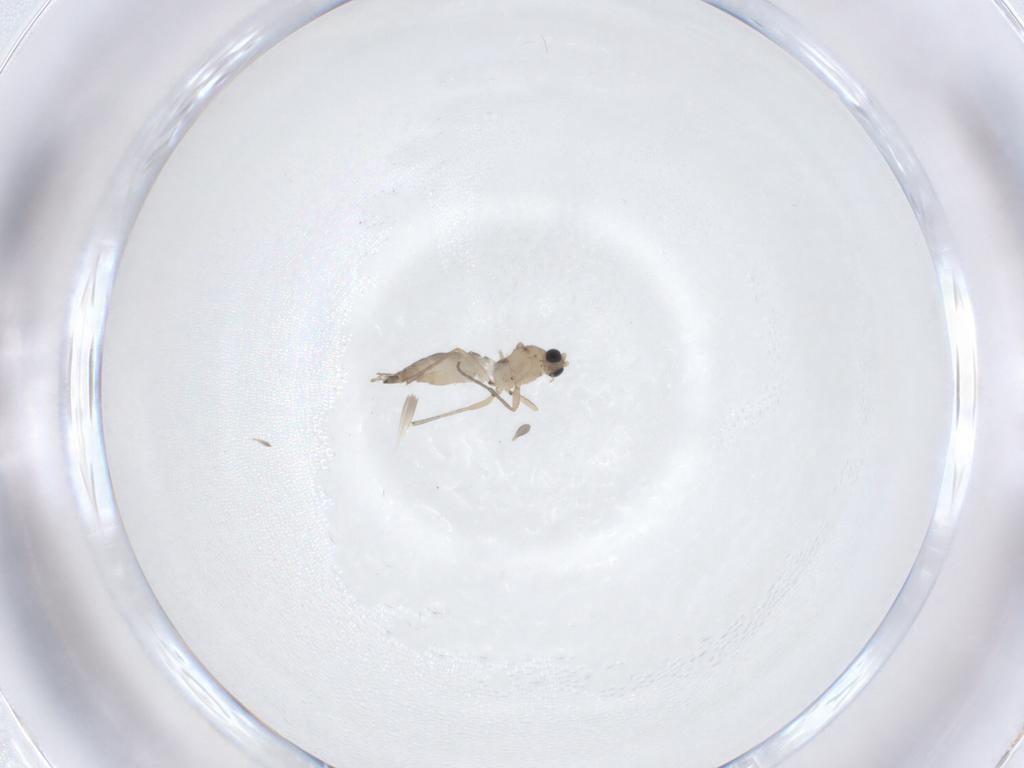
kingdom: Animalia
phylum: Arthropoda
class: Insecta
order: Diptera
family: Sciaridae
